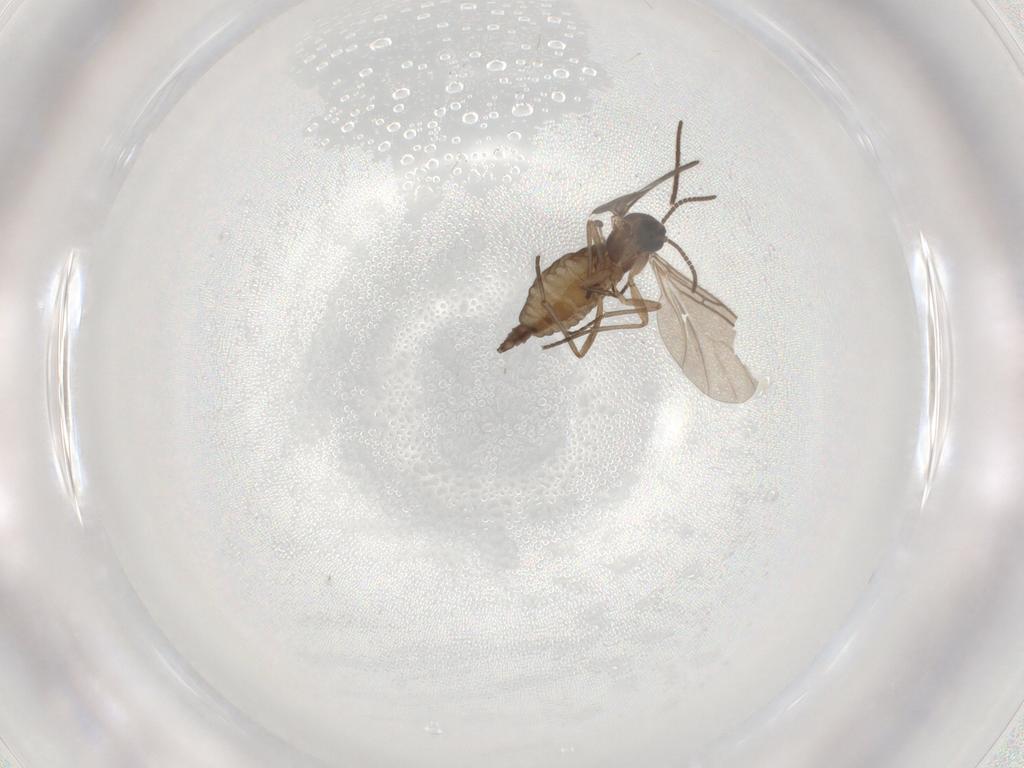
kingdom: Animalia
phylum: Arthropoda
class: Insecta
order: Diptera
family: Sciaridae
